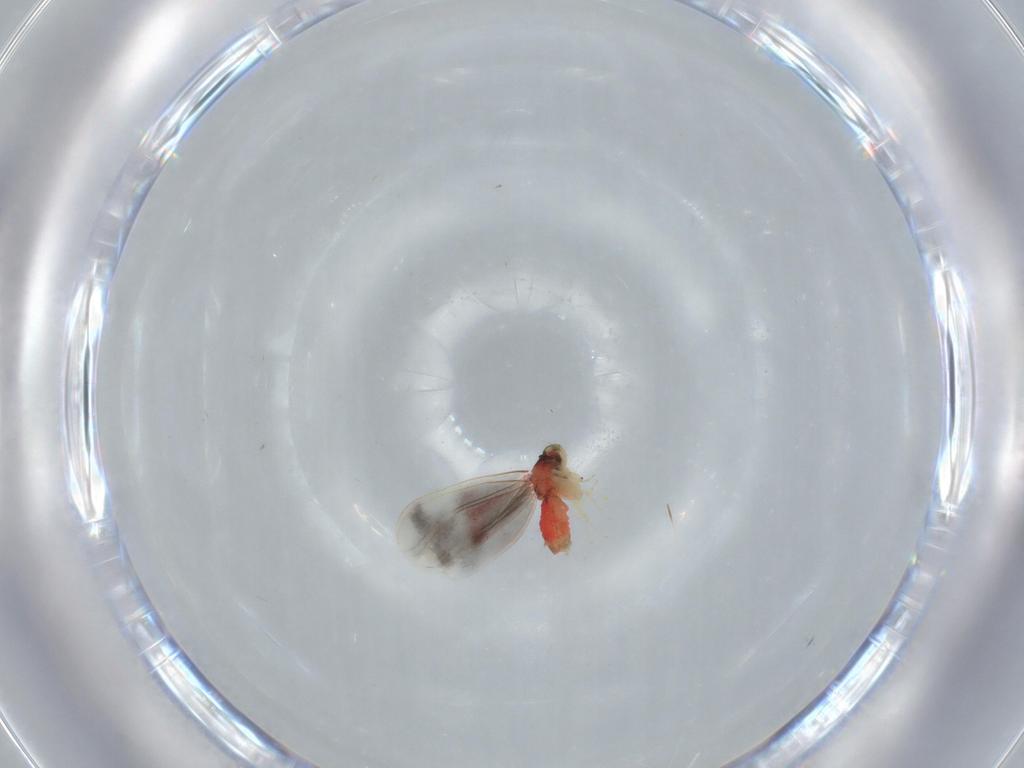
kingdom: Animalia
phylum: Arthropoda
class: Insecta
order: Hemiptera
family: Aleyrodidae
